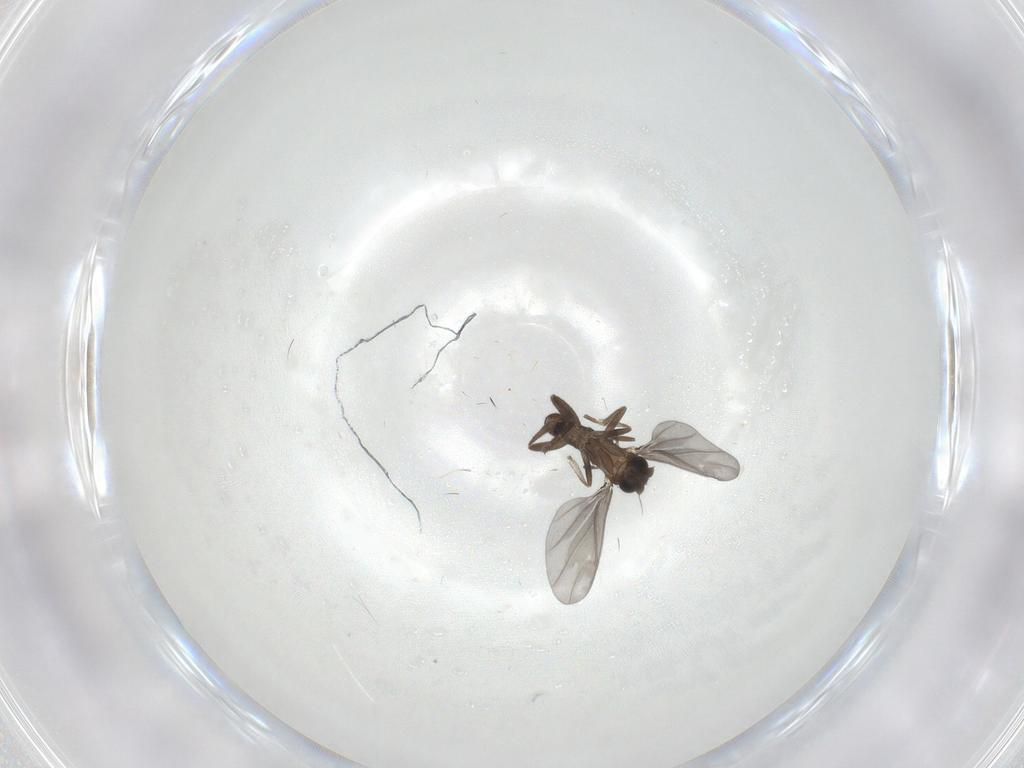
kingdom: Animalia
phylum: Arthropoda
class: Insecta
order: Diptera
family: Phoridae
